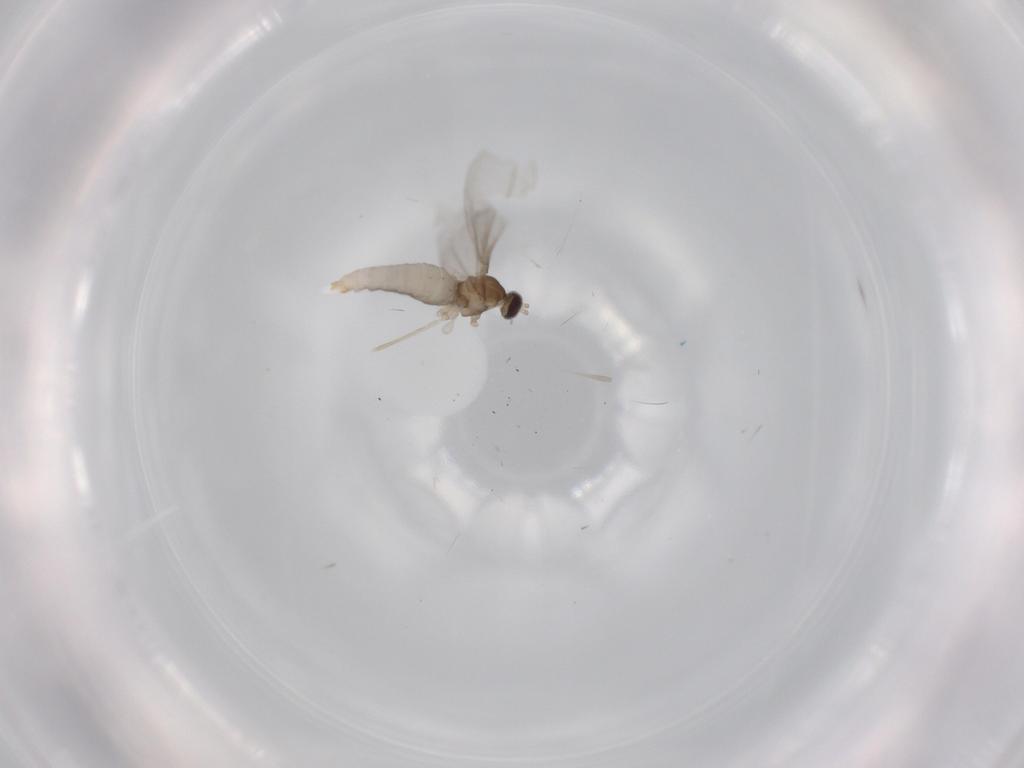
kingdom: Animalia
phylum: Arthropoda
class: Insecta
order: Diptera
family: Cecidomyiidae
